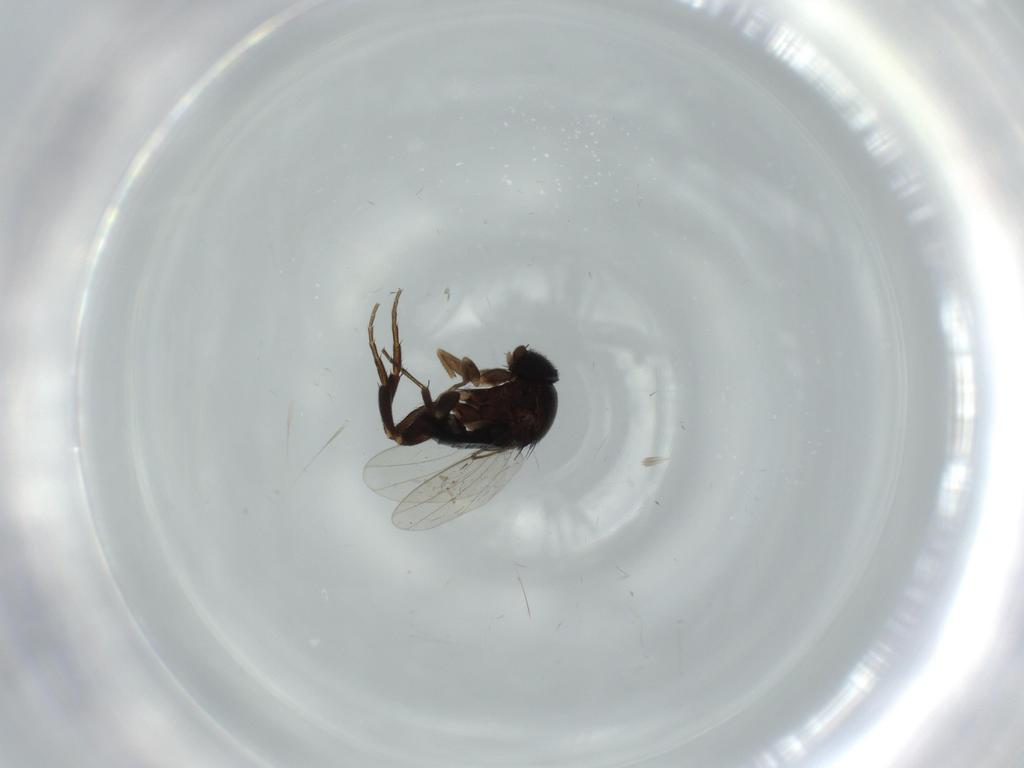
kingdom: Animalia
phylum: Arthropoda
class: Insecta
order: Diptera
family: Phoridae
